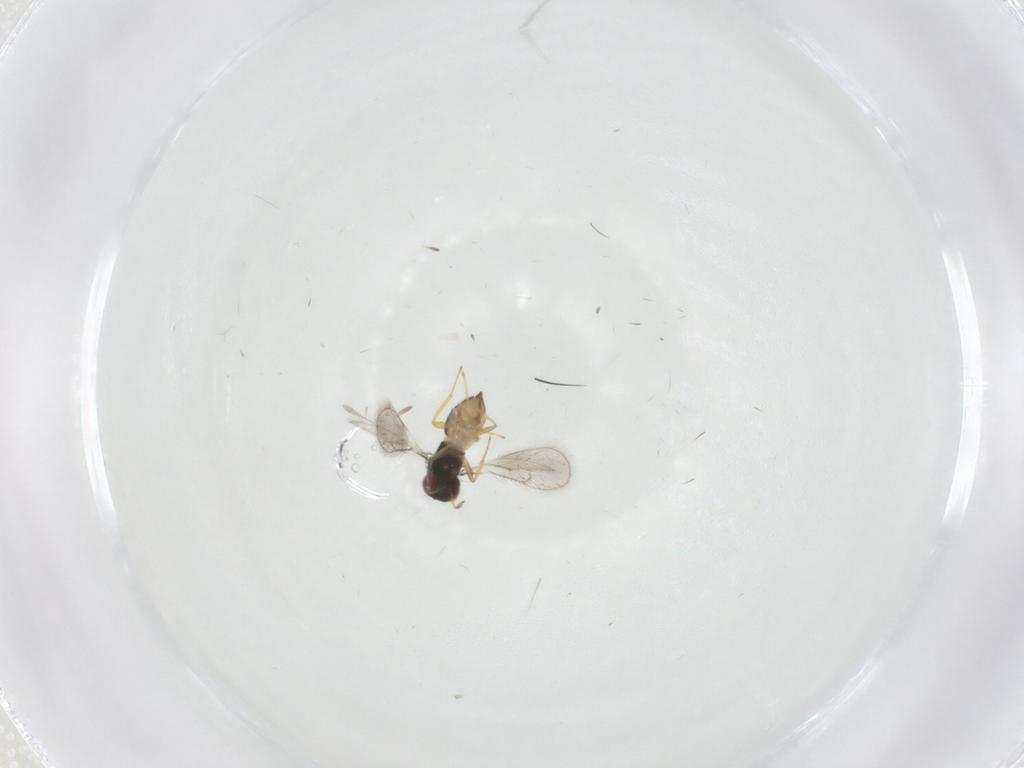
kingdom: Animalia
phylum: Arthropoda
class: Insecta
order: Hymenoptera
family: Eulophidae
